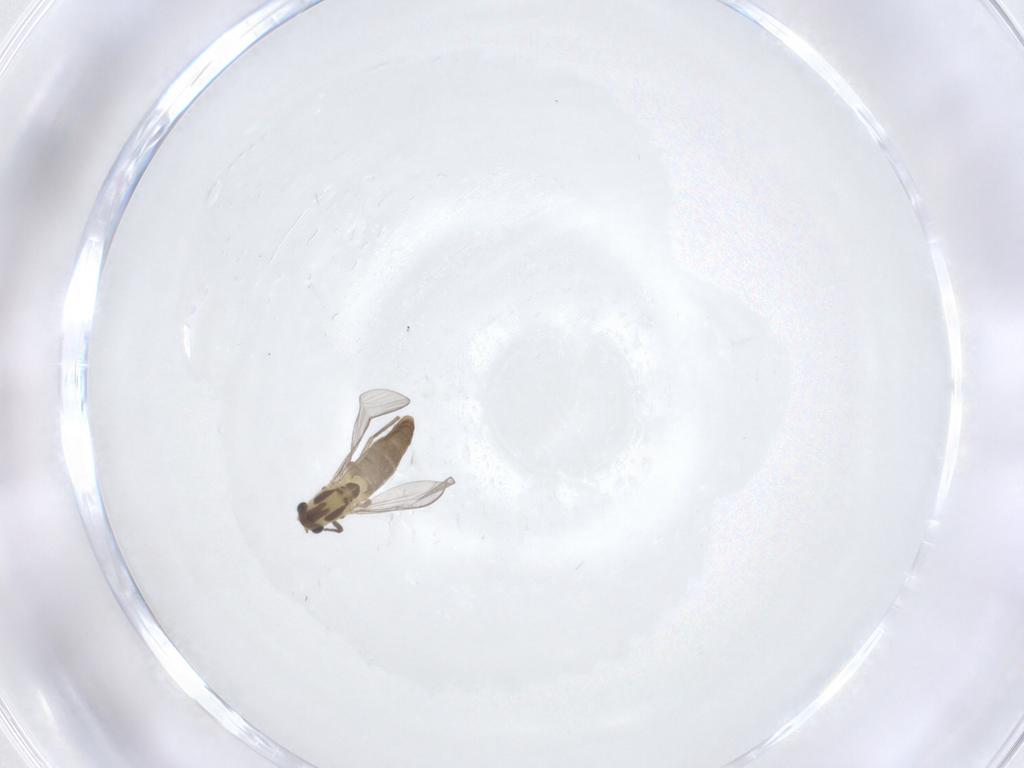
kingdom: Animalia
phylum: Arthropoda
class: Insecta
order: Diptera
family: Chironomidae
